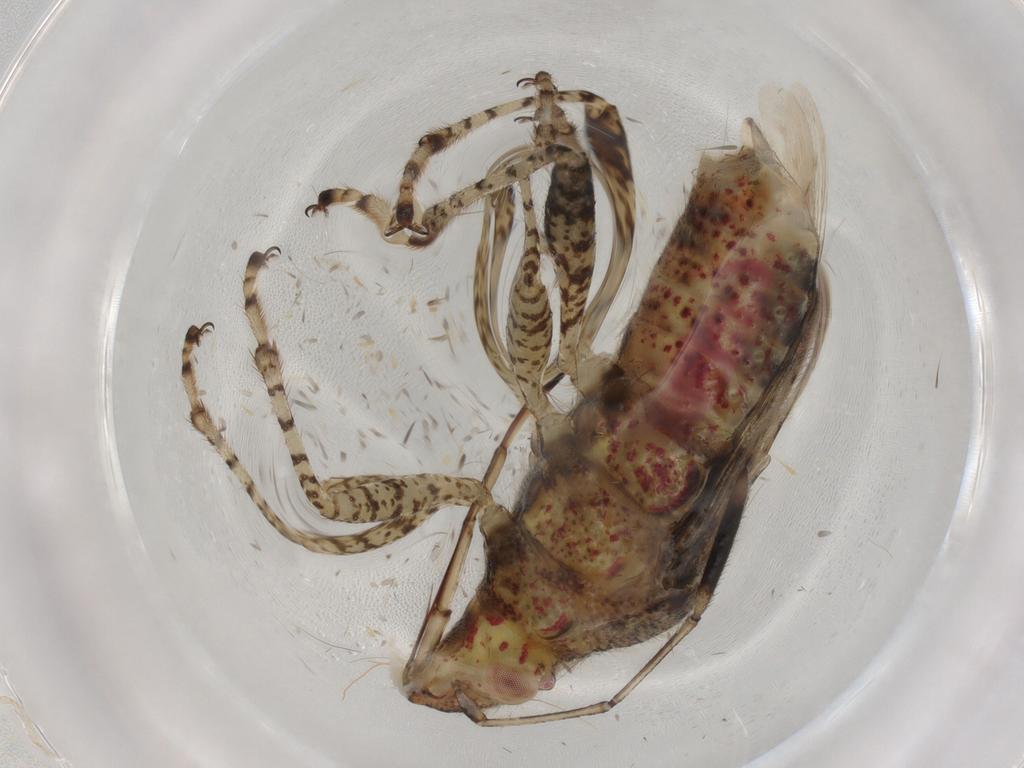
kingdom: Animalia
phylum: Arthropoda
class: Insecta
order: Hemiptera
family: Rhopalidae
